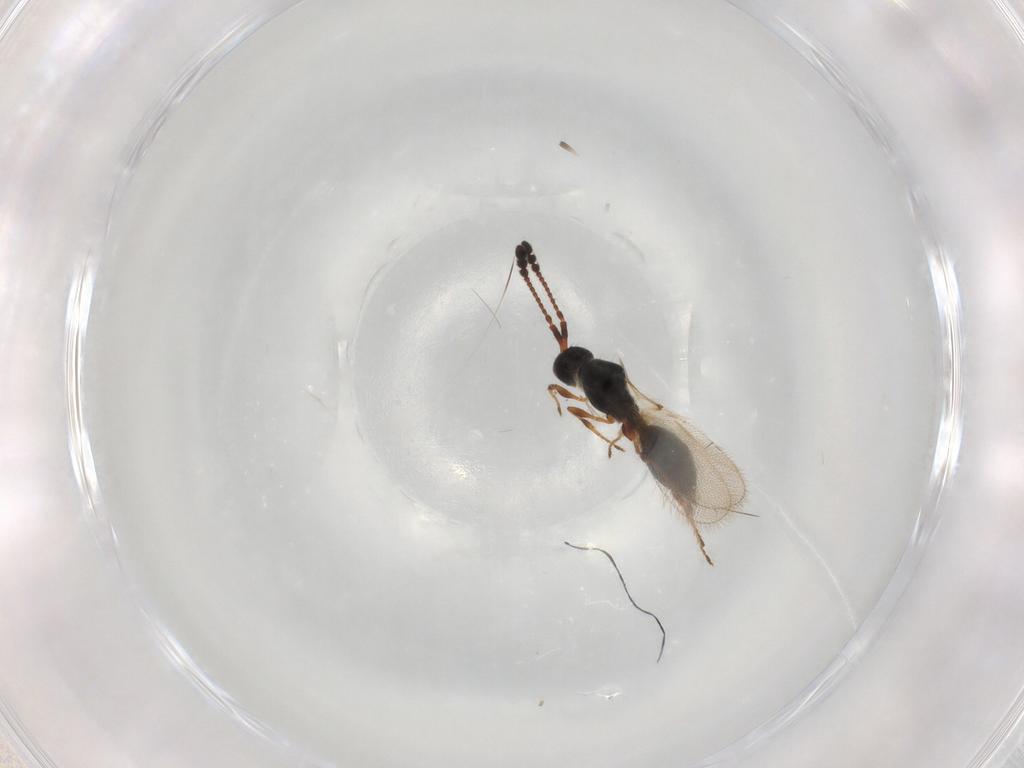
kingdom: Animalia
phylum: Arthropoda
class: Insecta
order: Hymenoptera
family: Diapriidae
